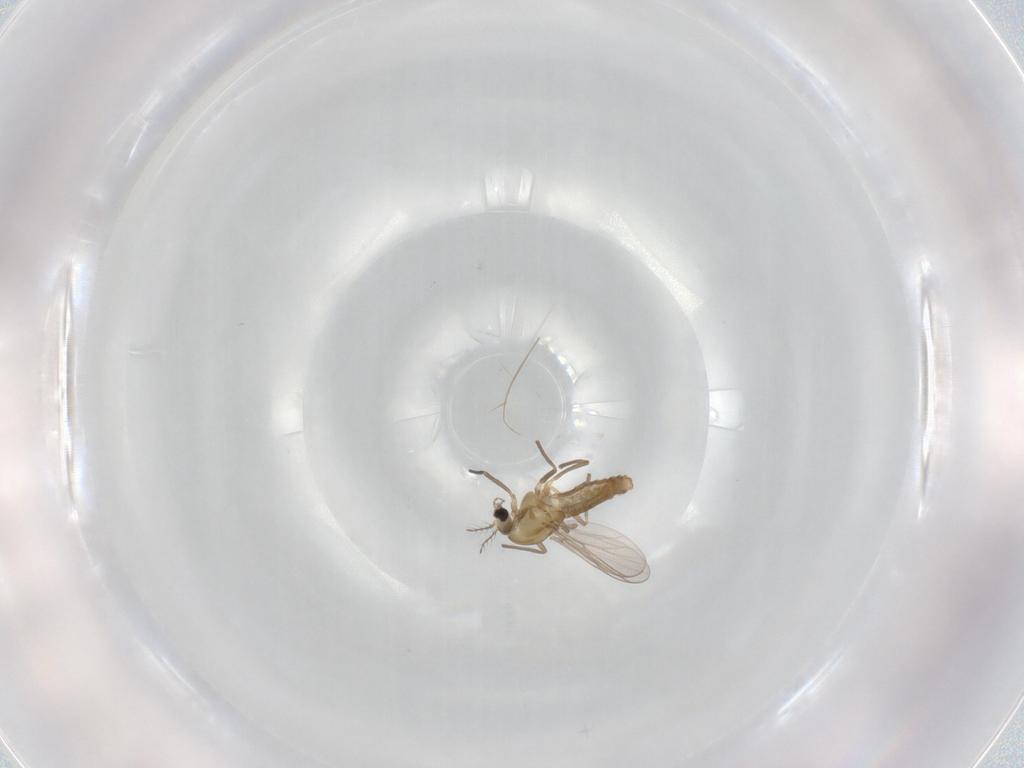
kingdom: Animalia
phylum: Arthropoda
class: Insecta
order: Diptera
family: Chironomidae
